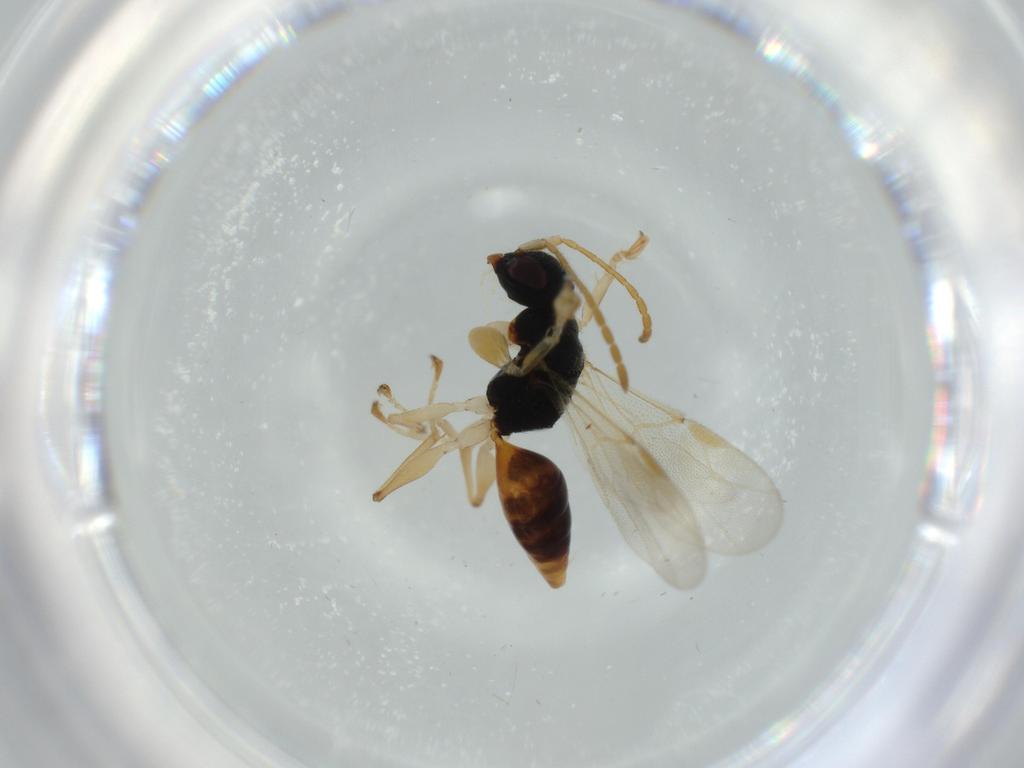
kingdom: Animalia
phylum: Arthropoda
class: Insecta
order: Hymenoptera
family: Dryinidae
